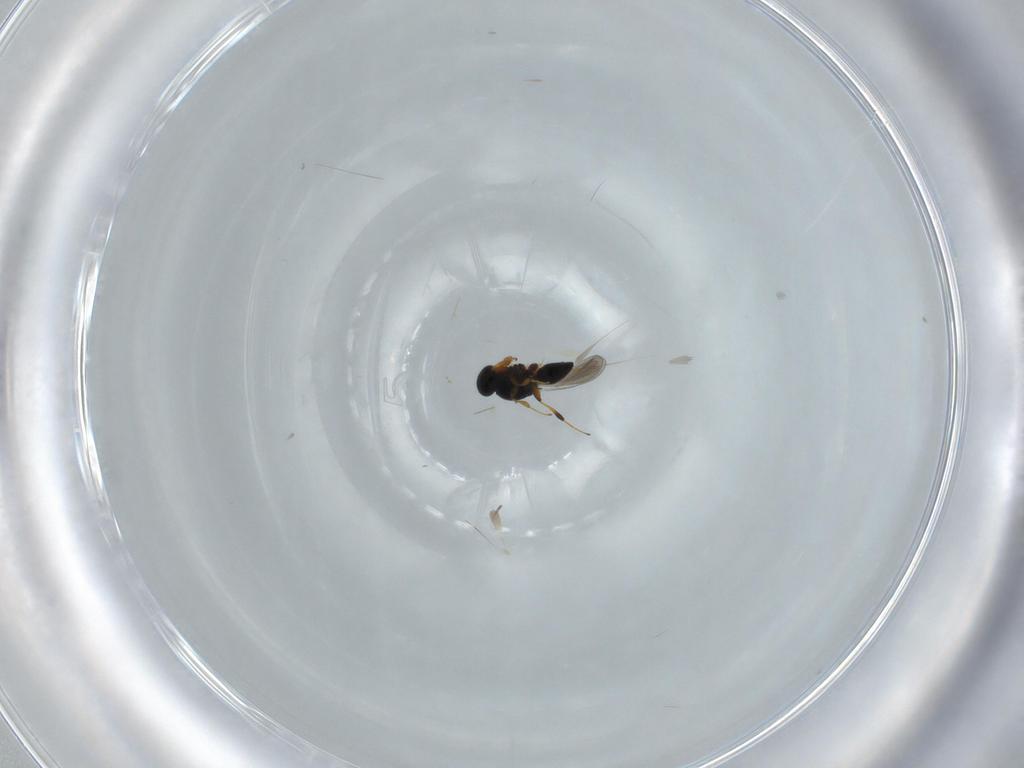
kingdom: Animalia
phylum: Arthropoda
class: Insecta
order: Hymenoptera
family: Platygastridae
